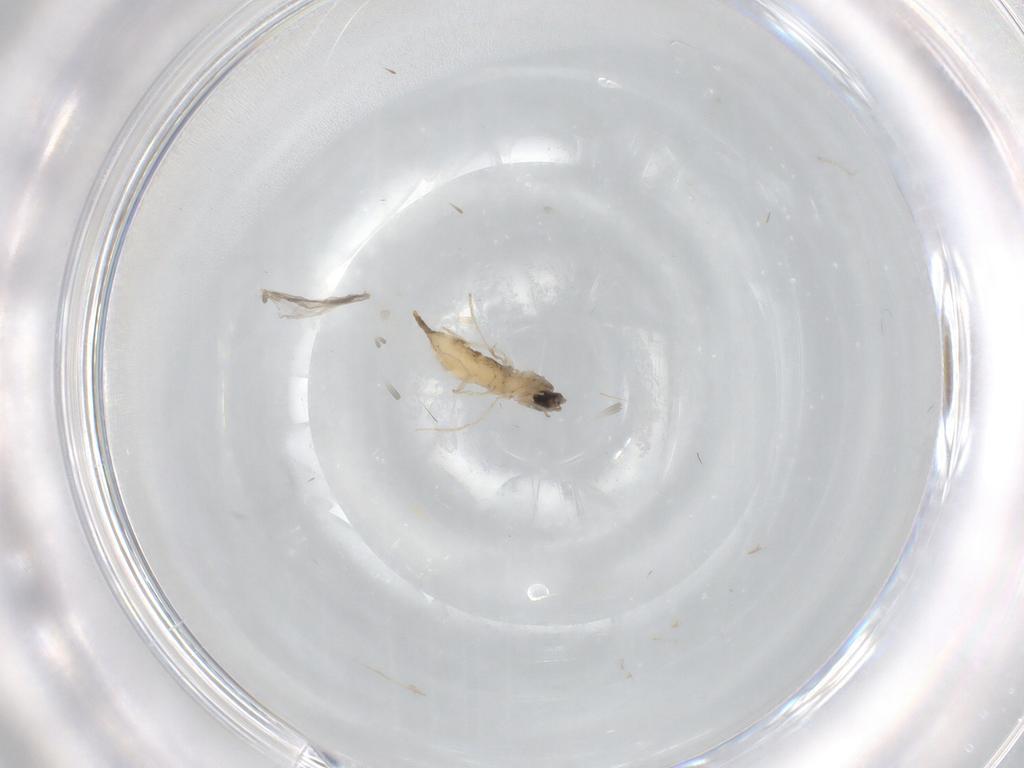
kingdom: Animalia
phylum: Arthropoda
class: Insecta
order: Diptera
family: Cecidomyiidae
